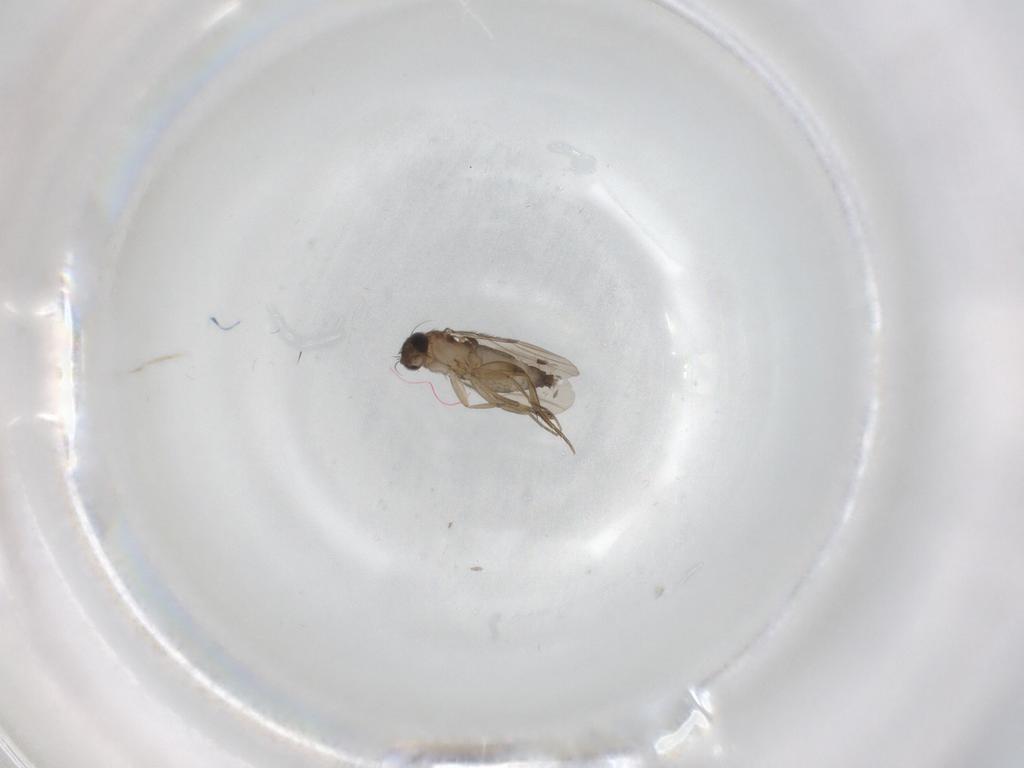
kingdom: Animalia
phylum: Arthropoda
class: Insecta
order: Diptera
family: Phoridae
